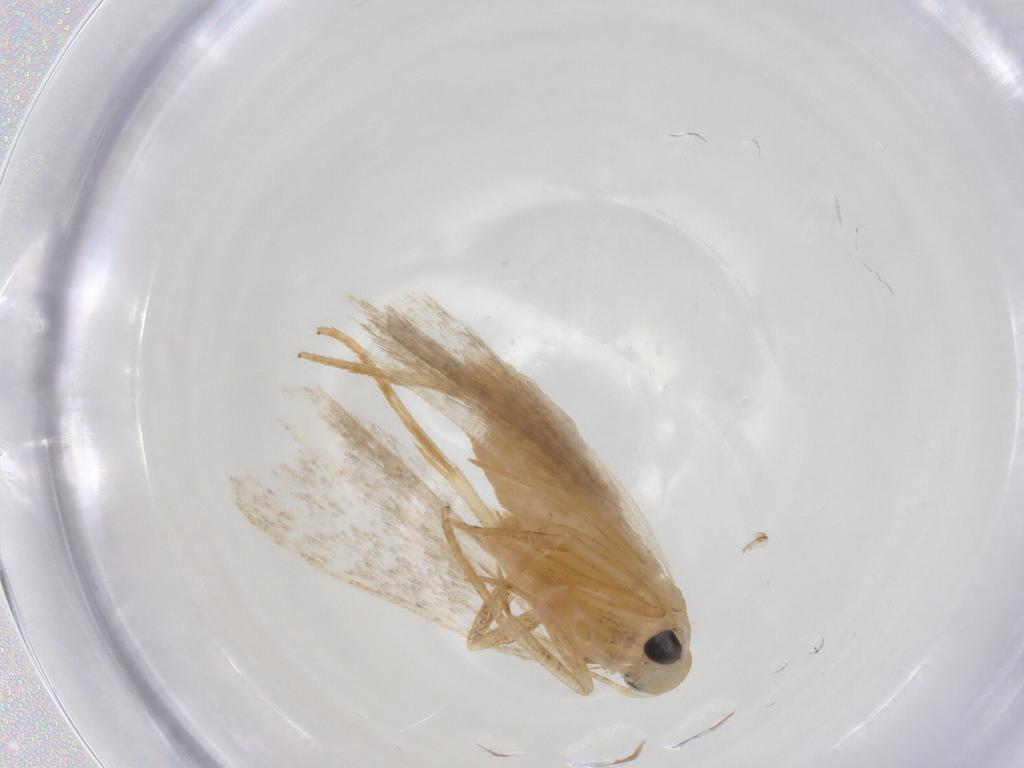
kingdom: Animalia
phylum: Arthropoda
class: Insecta
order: Lepidoptera
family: Gelechiidae
